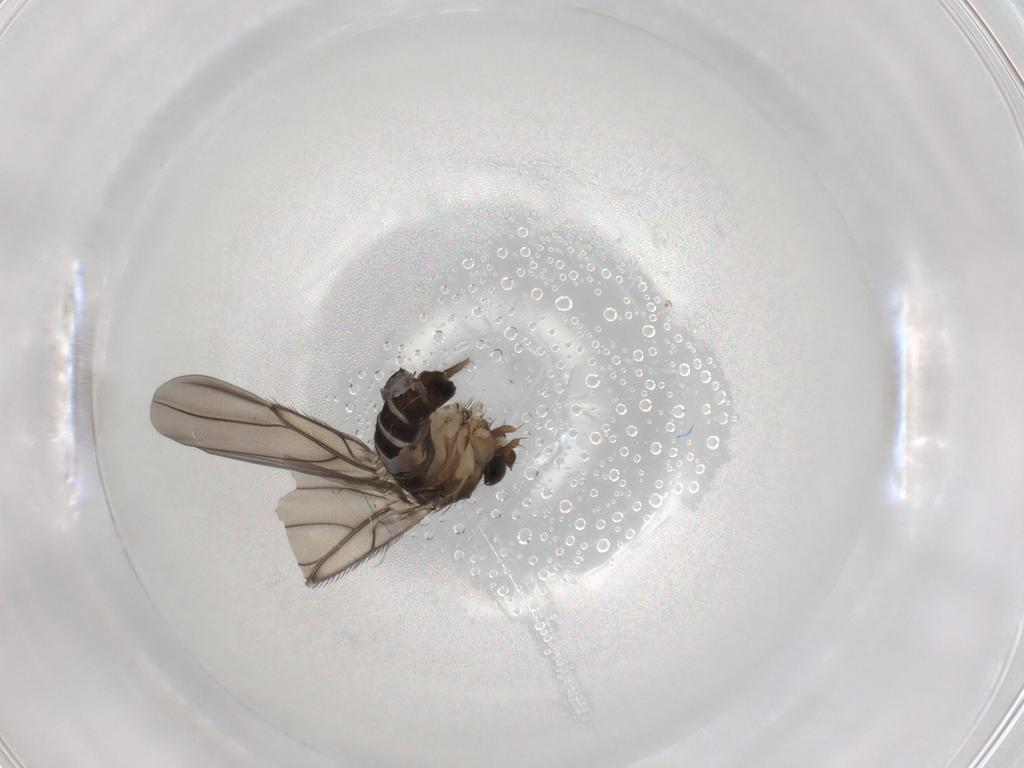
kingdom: Animalia
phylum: Arthropoda
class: Insecta
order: Diptera
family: Phoridae
